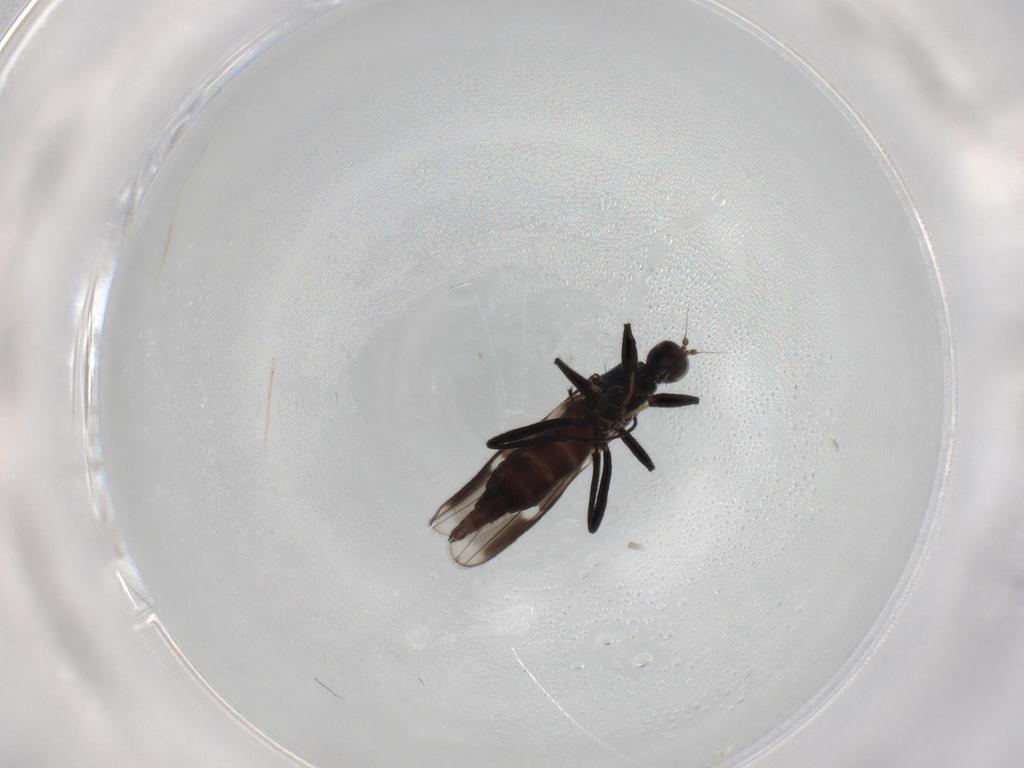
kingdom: Animalia
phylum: Arthropoda
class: Insecta
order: Diptera
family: Hybotidae
